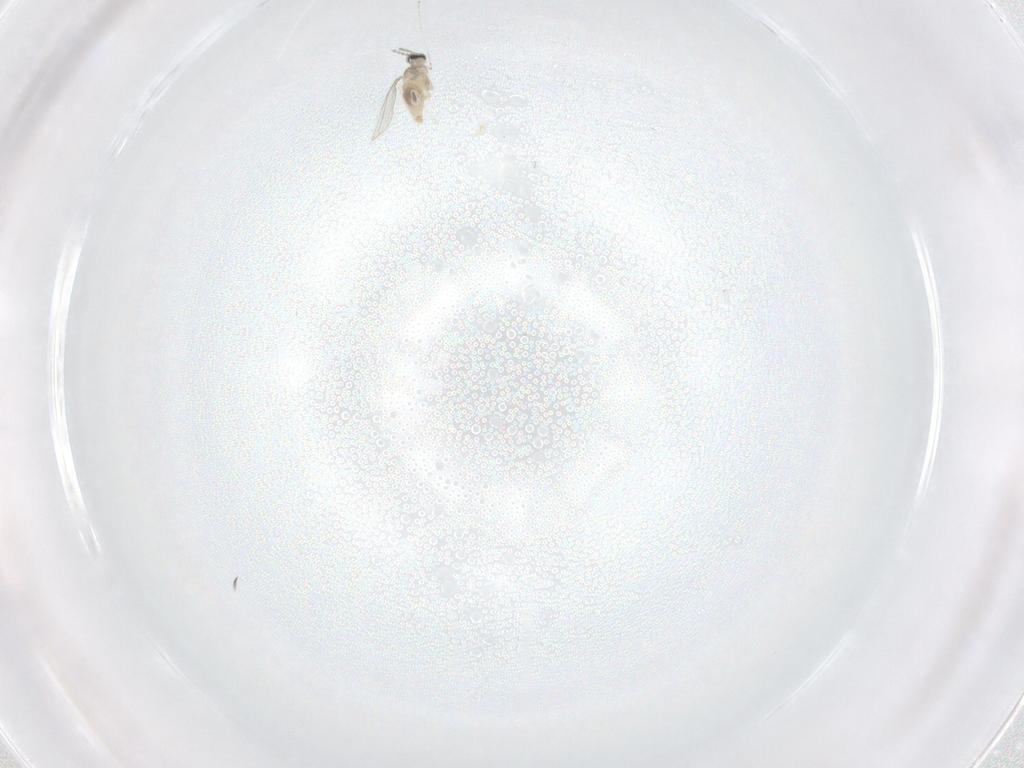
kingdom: Animalia
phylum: Arthropoda
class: Insecta
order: Diptera
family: Cecidomyiidae
